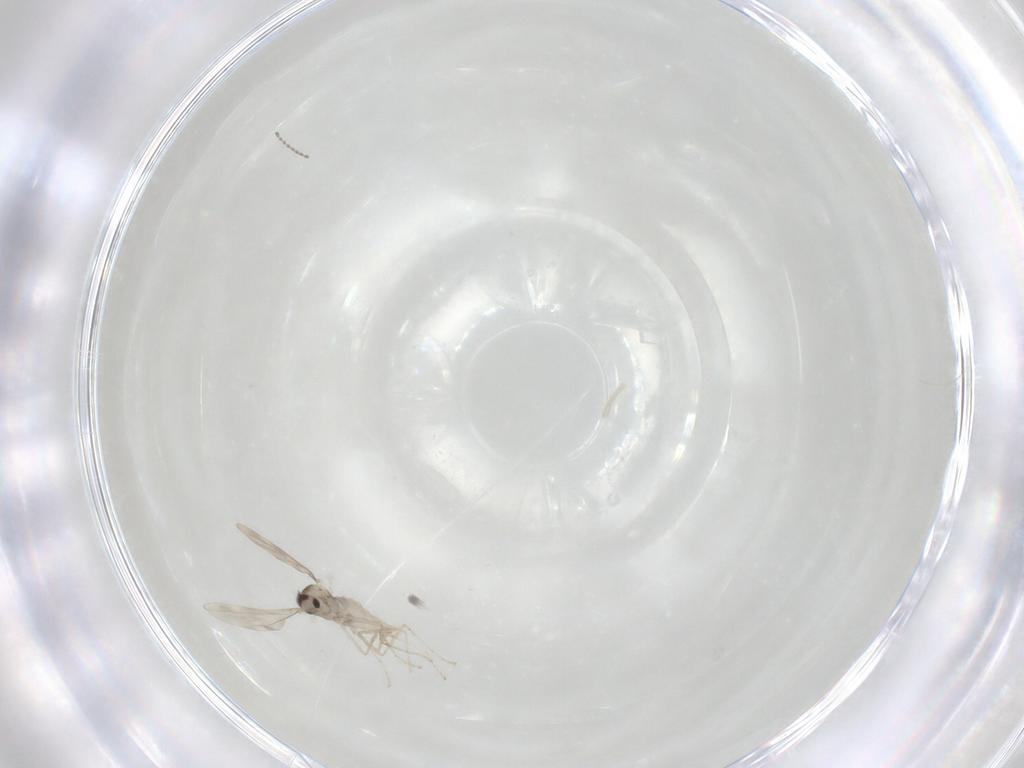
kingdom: Animalia
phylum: Arthropoda
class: Insecta
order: Diptera
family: Cecidomyiidae
